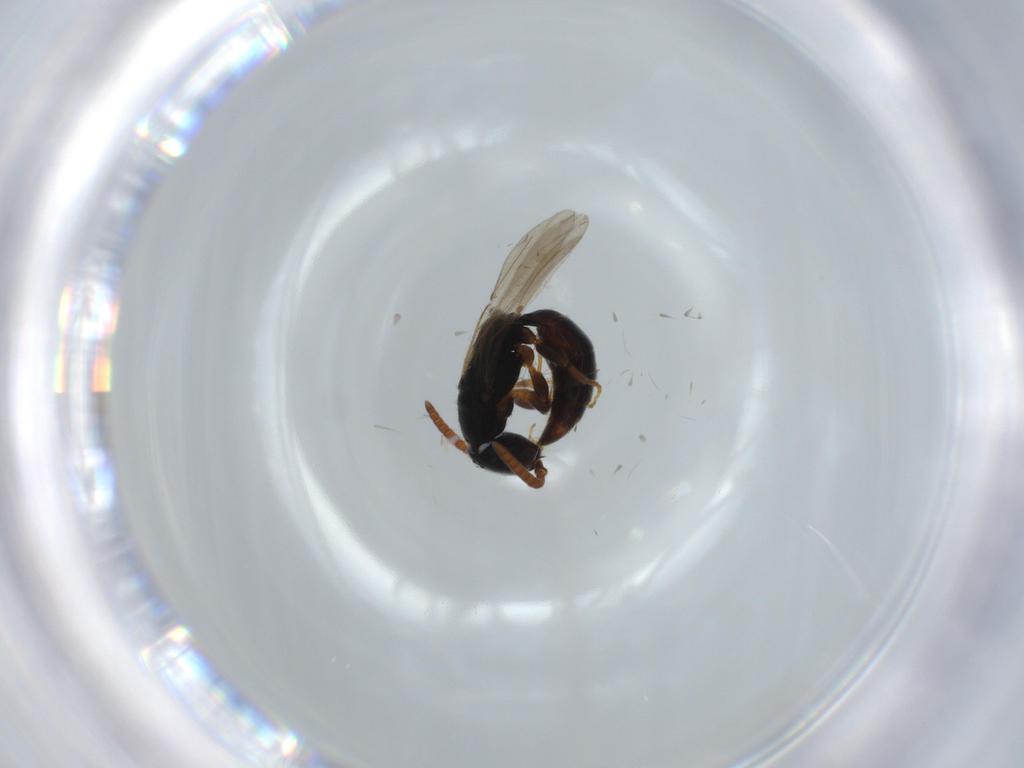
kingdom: Animalia
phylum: Arthropoda
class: Insecta
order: Hymenoptera
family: Bethylidae
